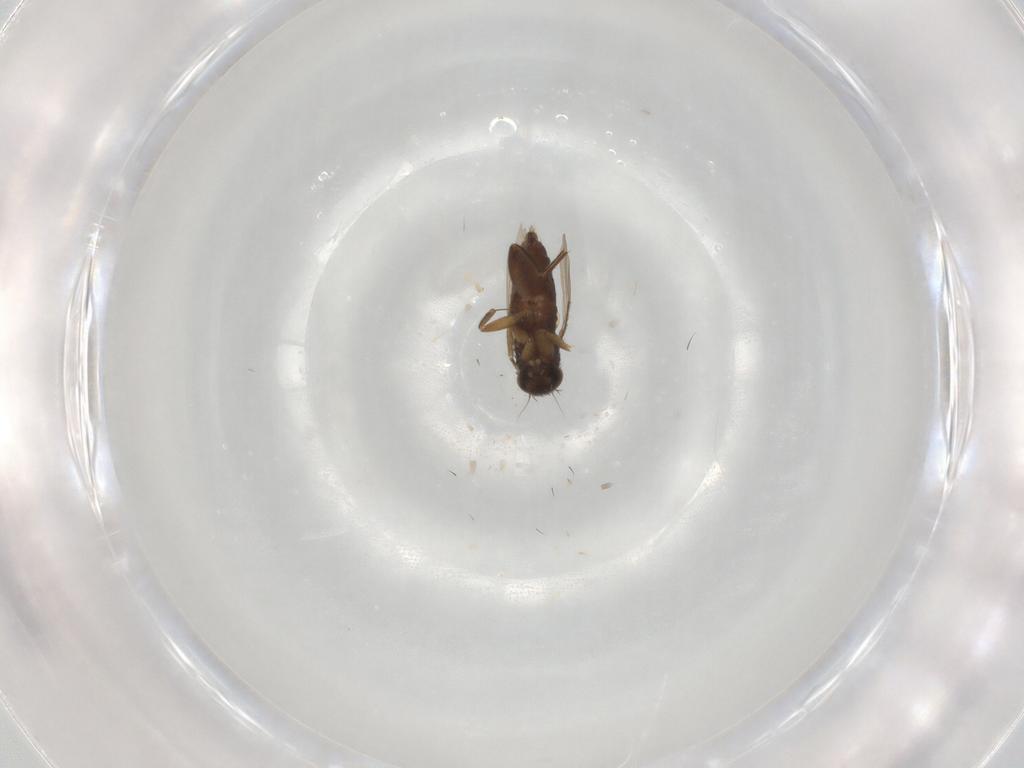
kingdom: Animalia
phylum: Arthropoda
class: Insecta
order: Diptera
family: Phoridae
